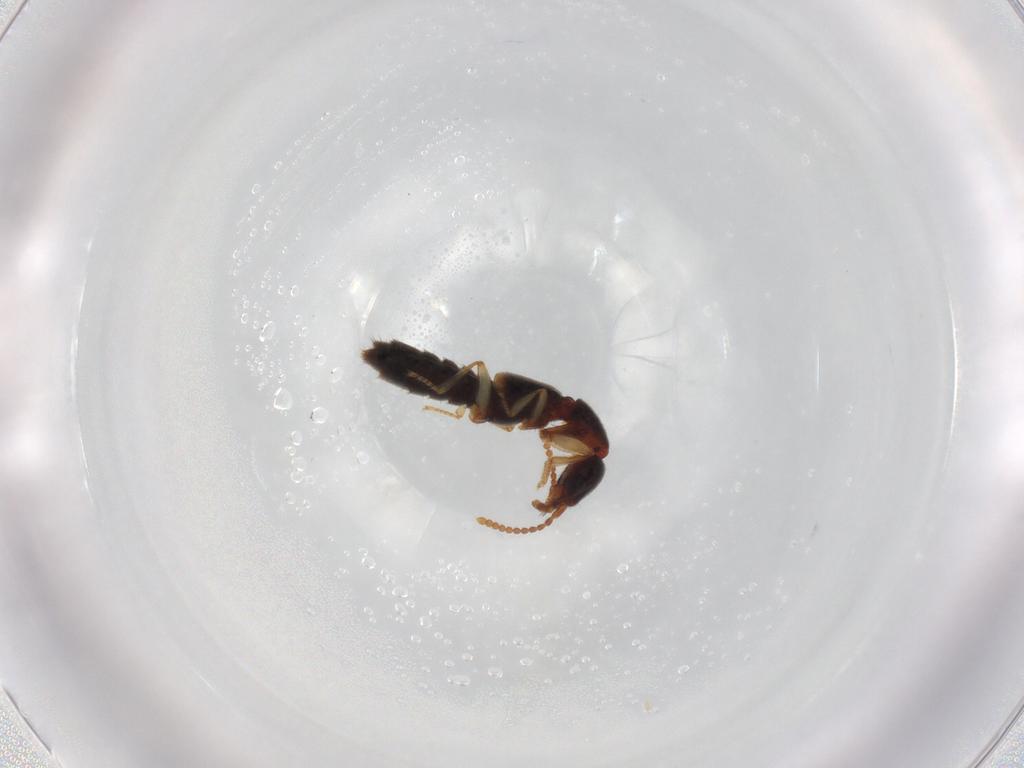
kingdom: Animalia
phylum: Arthropoda
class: Insecta
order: Coleoptera
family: Staphylinidae
